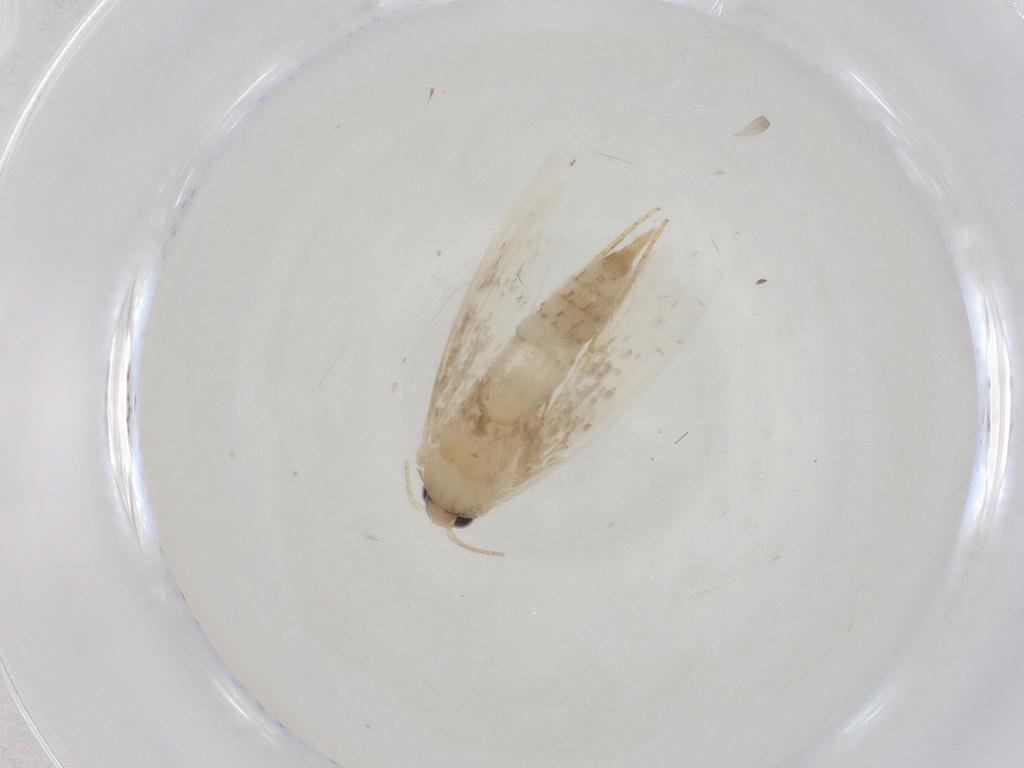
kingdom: Animalia
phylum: Arthropoda
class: Insecta
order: Lepidoptera
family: Tineidae
